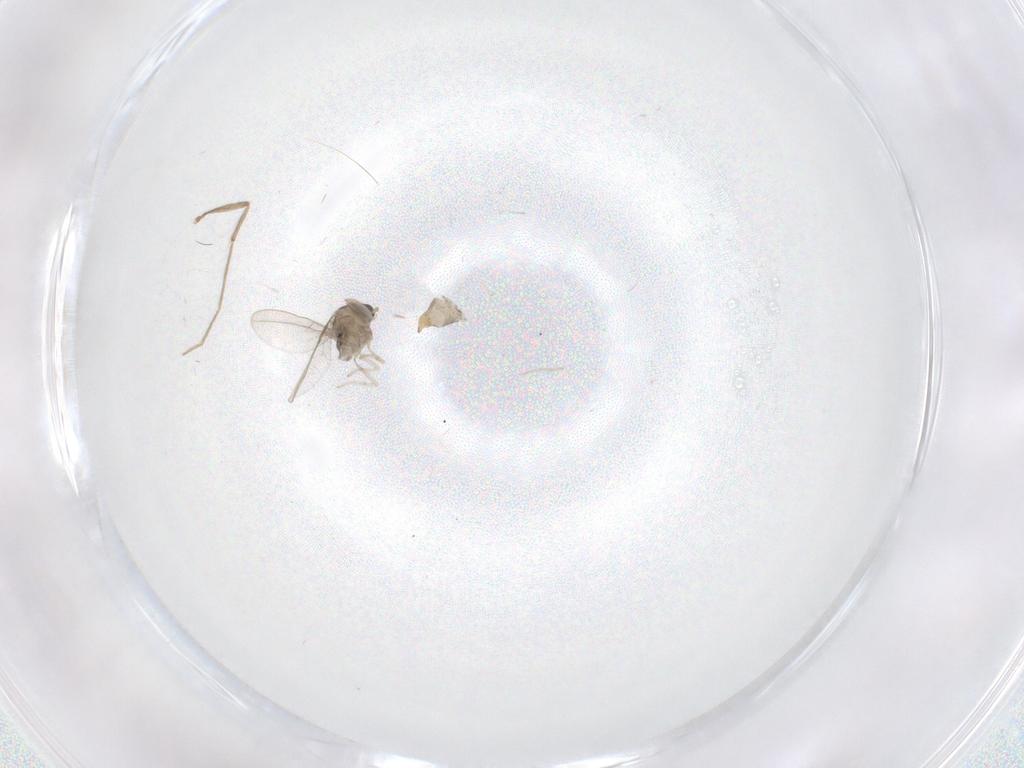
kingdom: Animalia
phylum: Arthropoda
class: Insecta
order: Diptera
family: Cecidomyiidae
